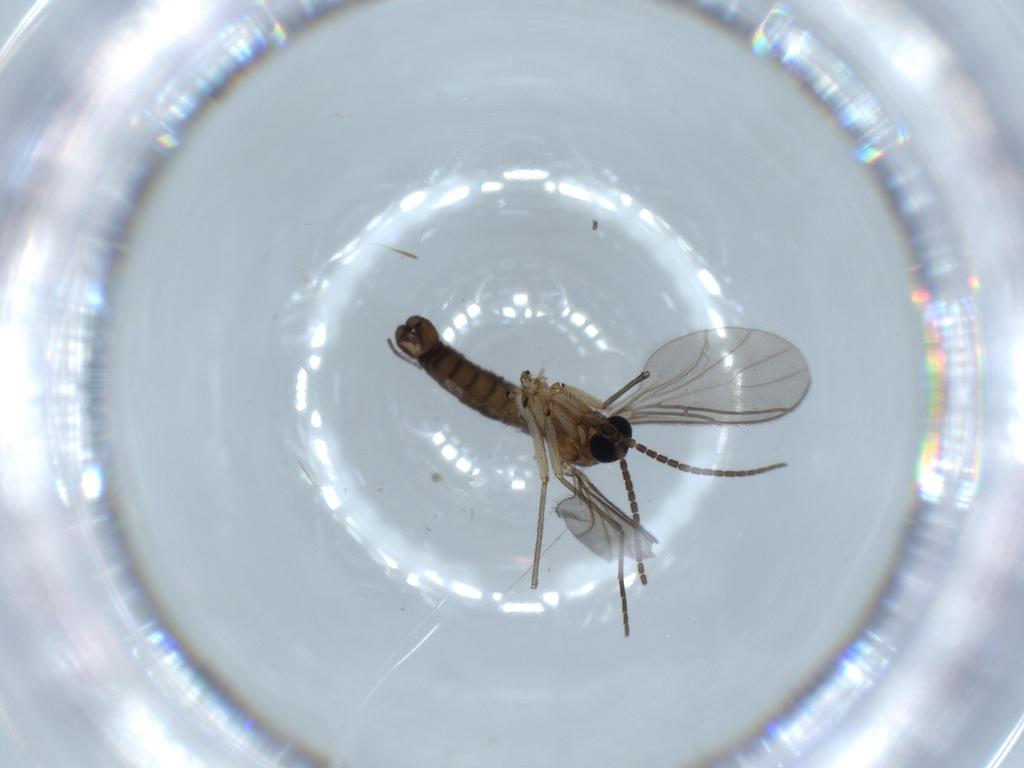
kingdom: Animalia
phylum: Arthropoda
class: Insecta
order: Diptera
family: Sciaridae
